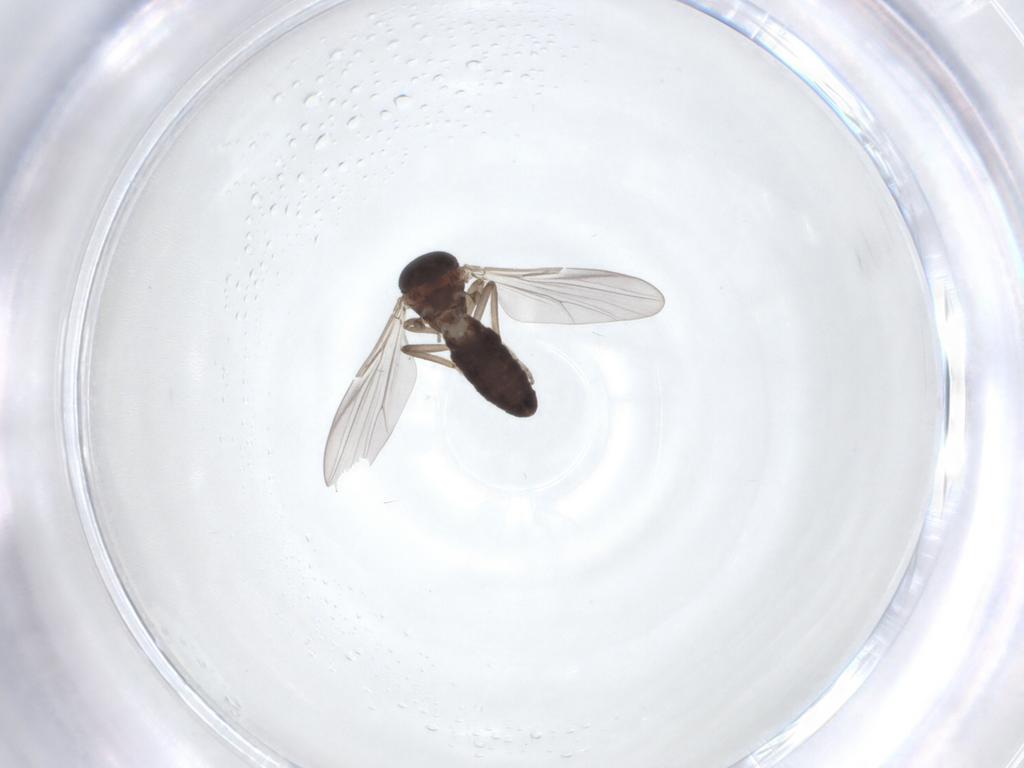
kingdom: Animalia
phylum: Arthropoda
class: Insecta
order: Diptera
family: Ceratopogonidae
